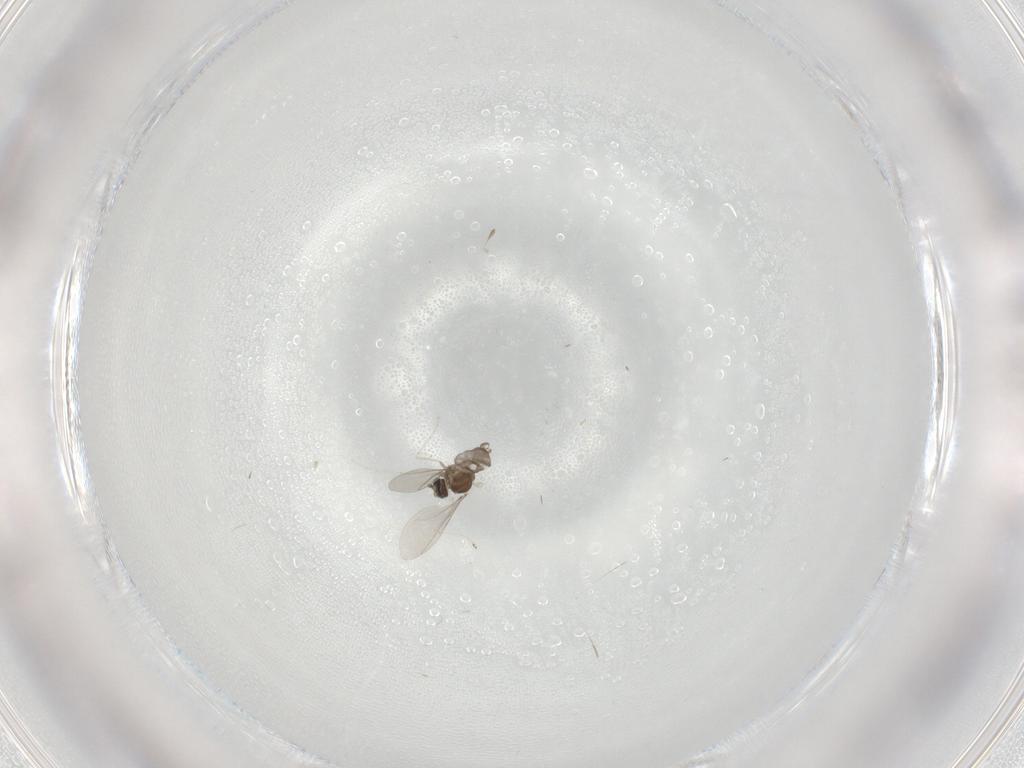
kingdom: Animalia
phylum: Arthropoda
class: Insecta
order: Diptera
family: Cecidomyiidae
